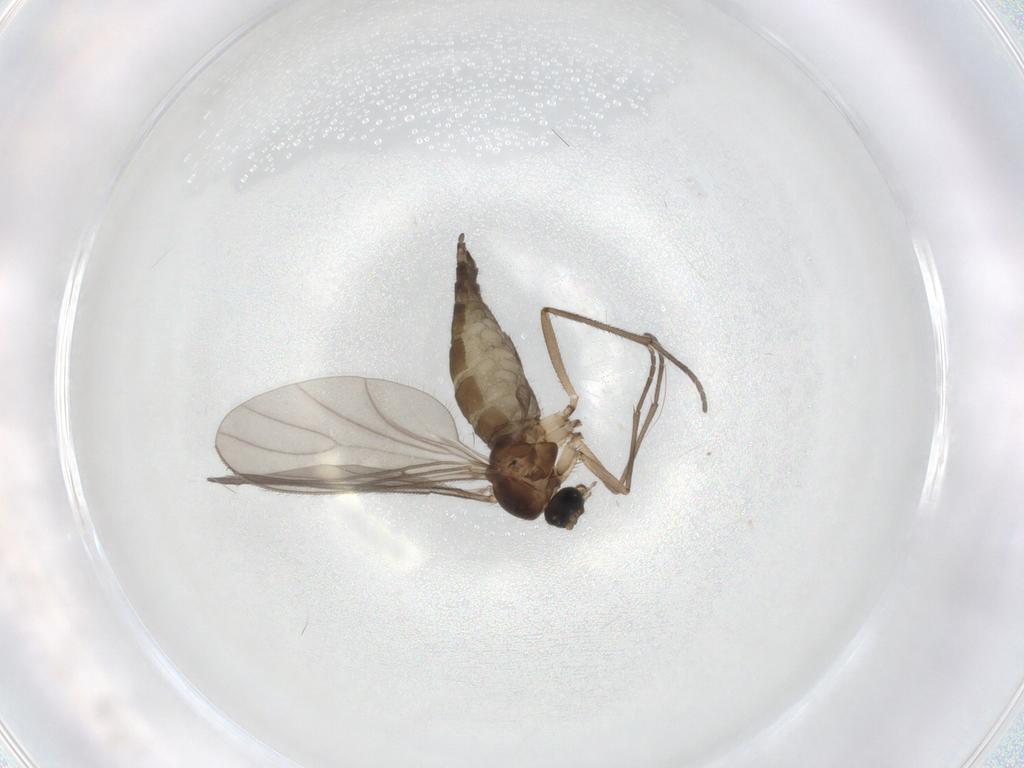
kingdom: Animalia
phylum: Arthropoda
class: Insecta
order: Diptera
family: Sciaridae
